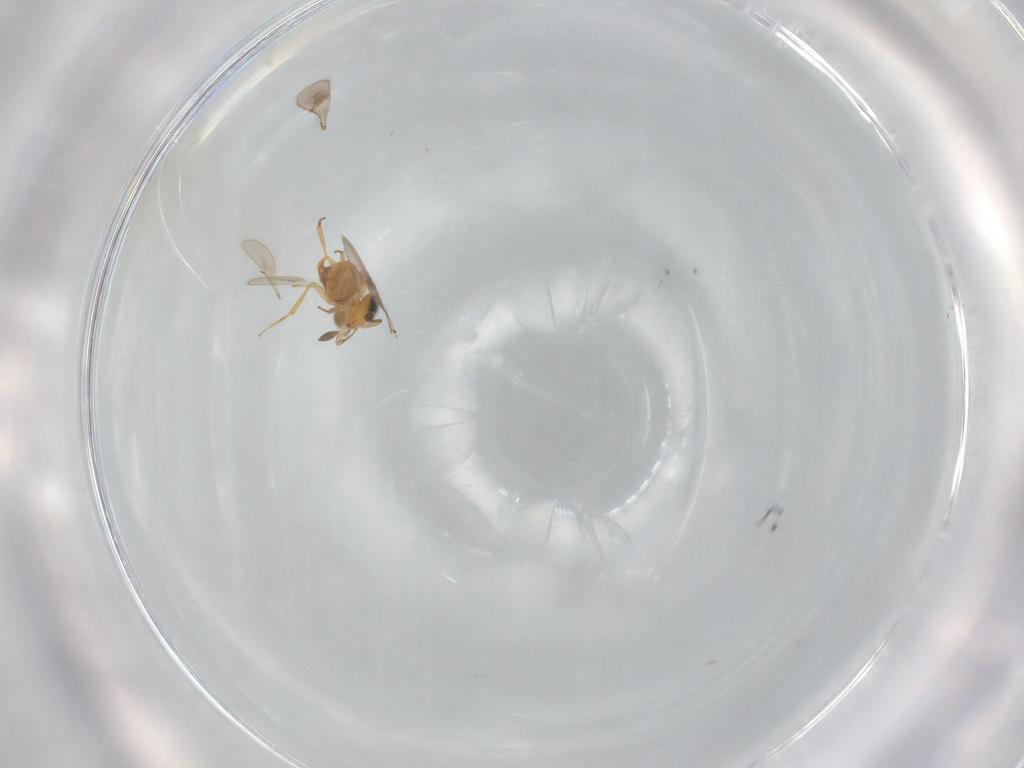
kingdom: Animalia
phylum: Arthropoda
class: Insecta
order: Hymenoptera
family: Scelionidae
